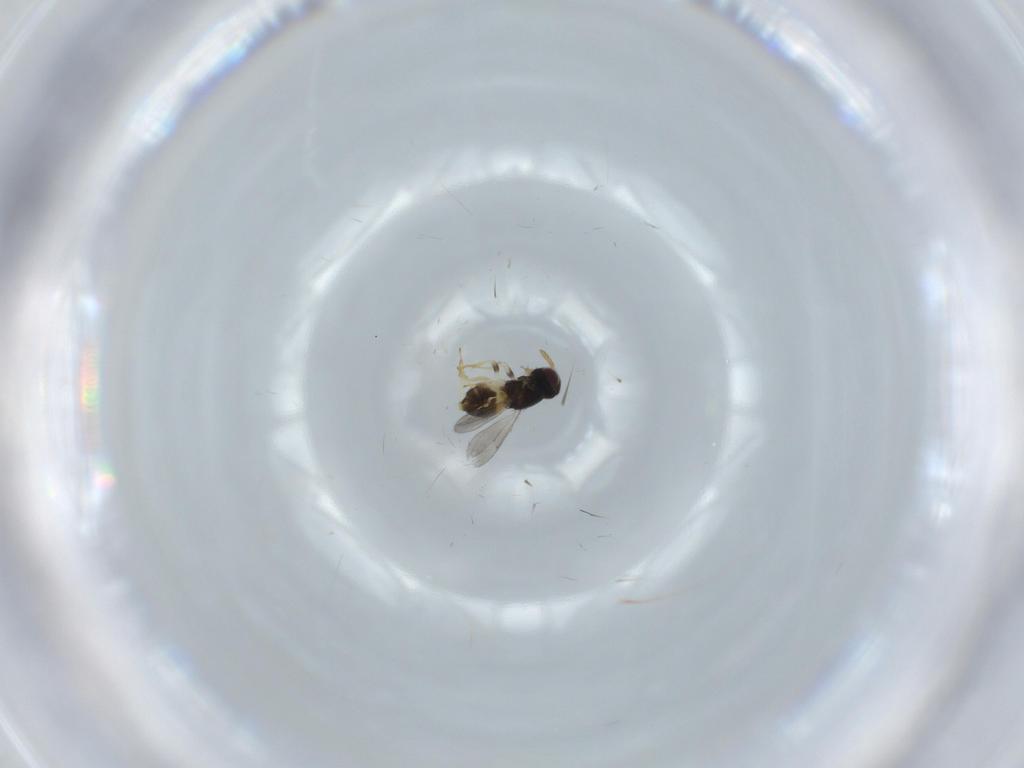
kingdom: Animalia
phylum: Arthropoda
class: Insecta
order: Hymenoptera
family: Aphelinidae
